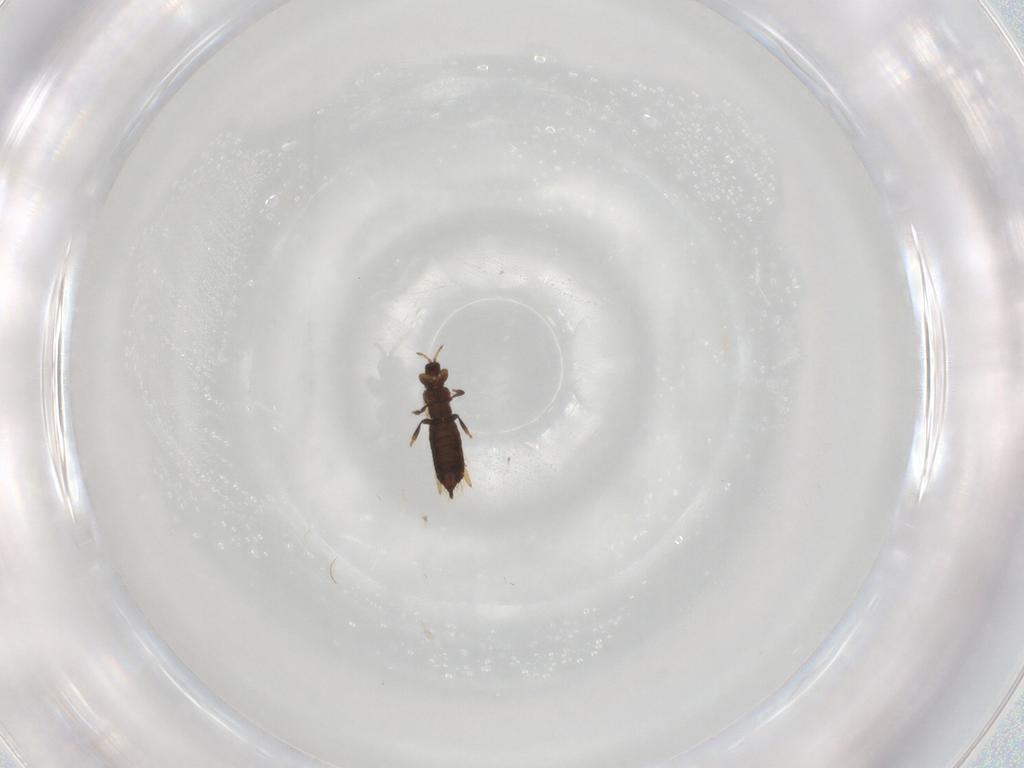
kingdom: Animalia
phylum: Arthropoda
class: Insecta
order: Thysanoptera
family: Thripidae
